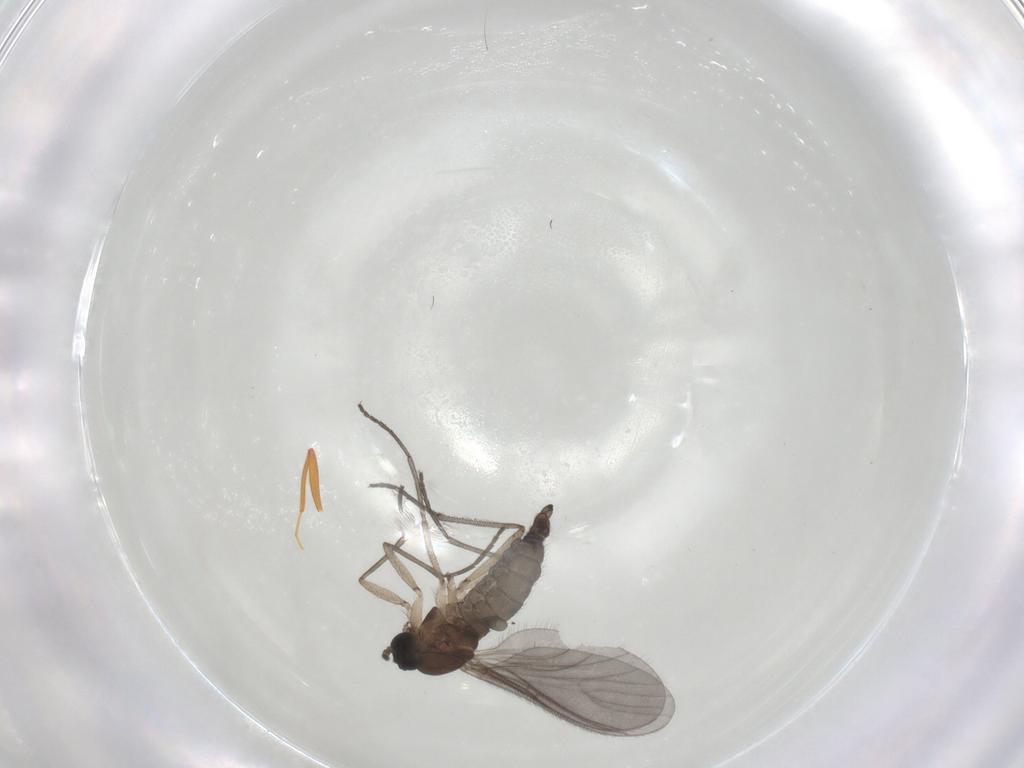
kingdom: Animalia
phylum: Arthropoda
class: Insecta
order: Diptera
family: Sciaridae
